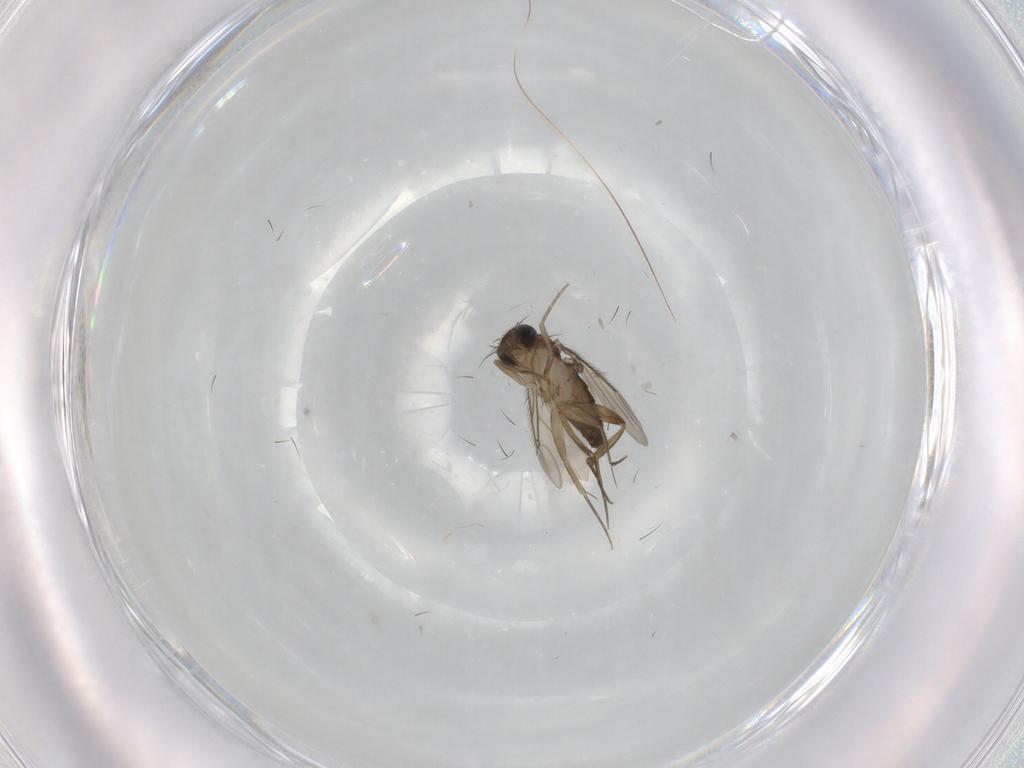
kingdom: Animalia
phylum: Arthropoda
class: Insecta
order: Diptera
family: Phoridae
